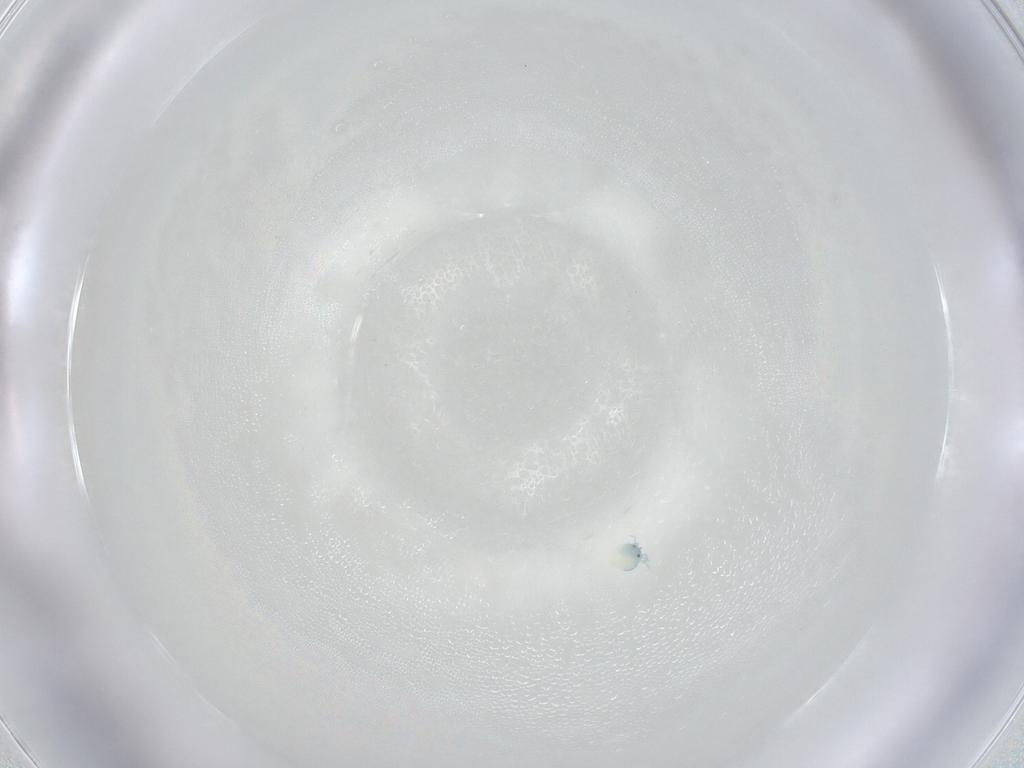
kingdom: Animalia
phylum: Arthropoda
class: Arachnida
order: Trombidiformes
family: Arrenuridae
